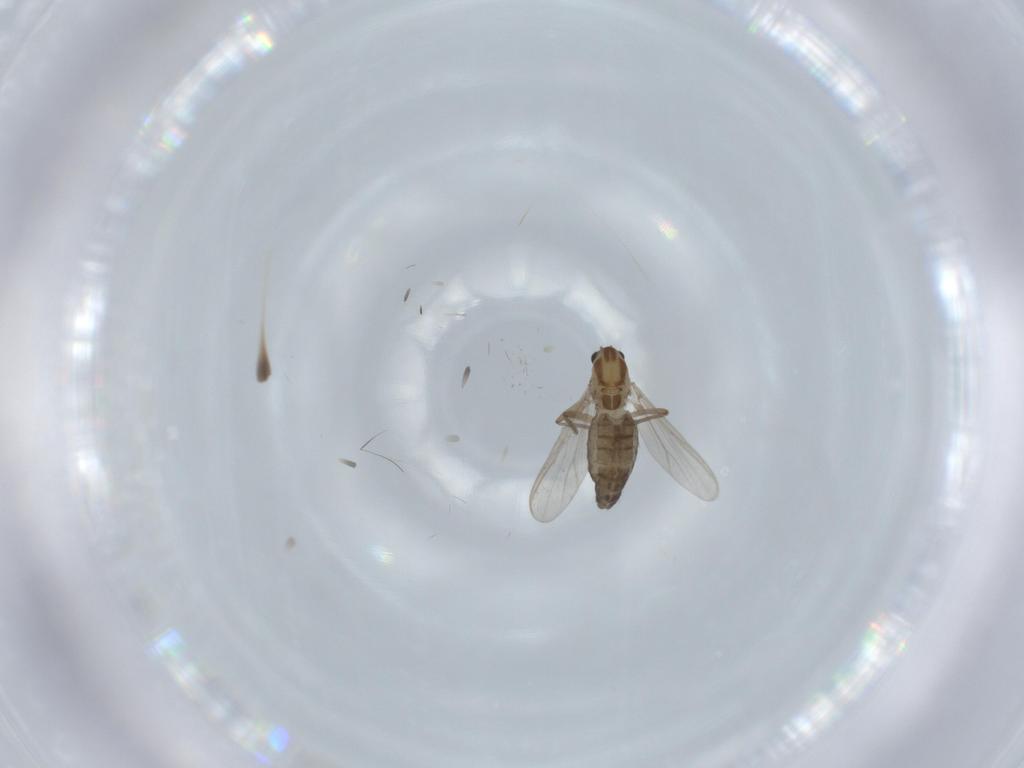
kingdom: Animalia
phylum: Arthropoda
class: Insecta
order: Diptera
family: Chironomidae
